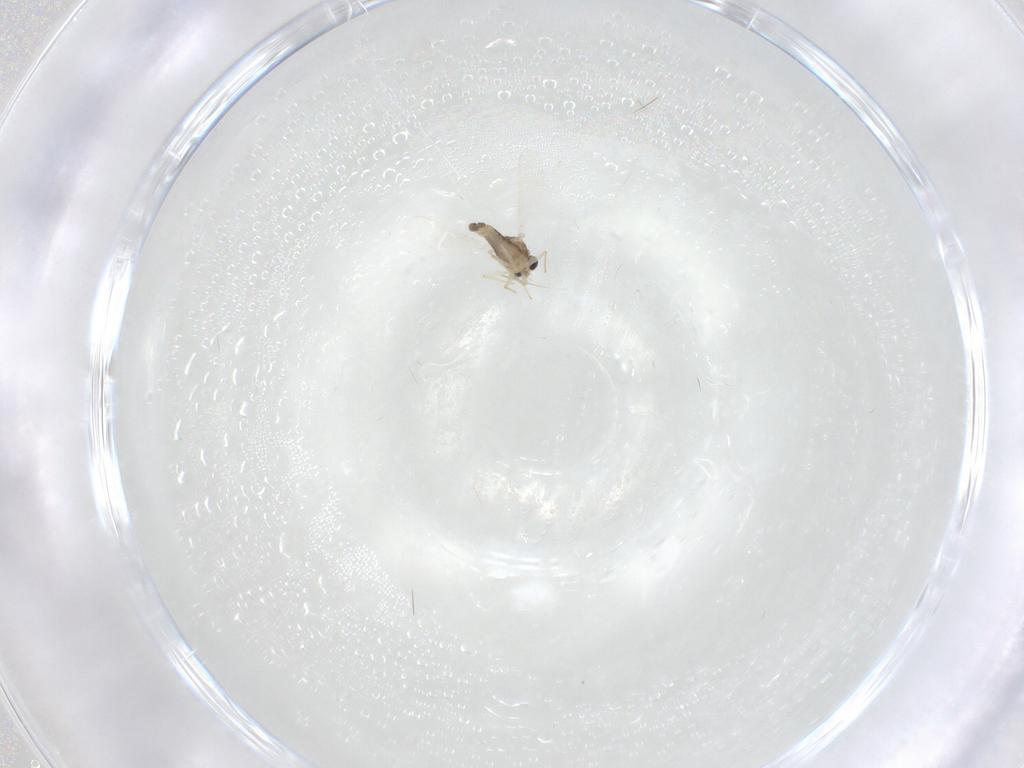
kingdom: Animalia
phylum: Arthropoda
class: Insecta
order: Diptera
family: Chironomidae
